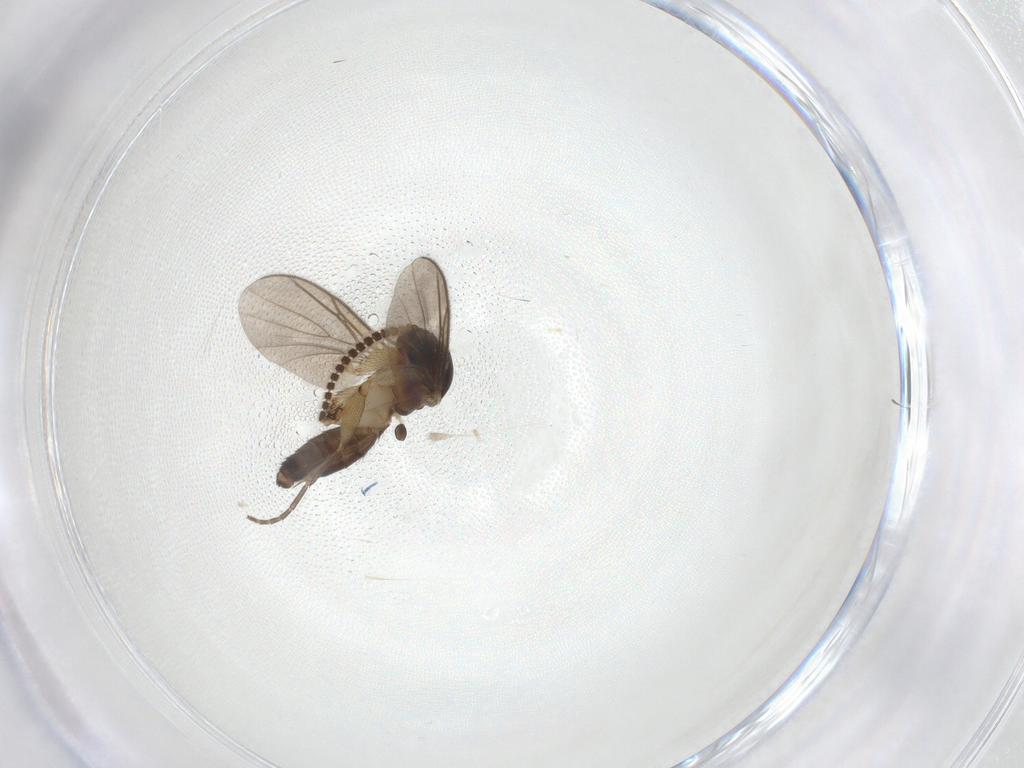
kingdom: Animalia
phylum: Arthropoda
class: Insecta
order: Diptera
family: Mycetophilidae
